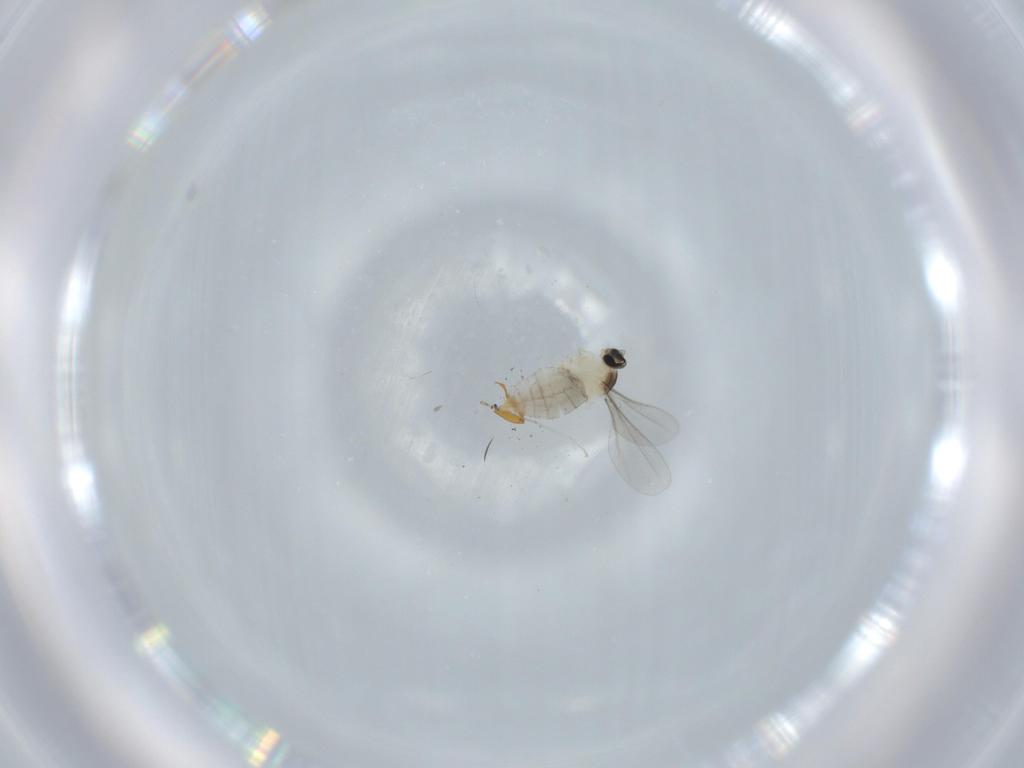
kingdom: Animalia
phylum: Arthropoda
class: Insecta
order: Diptera
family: Cecidomyiidae
